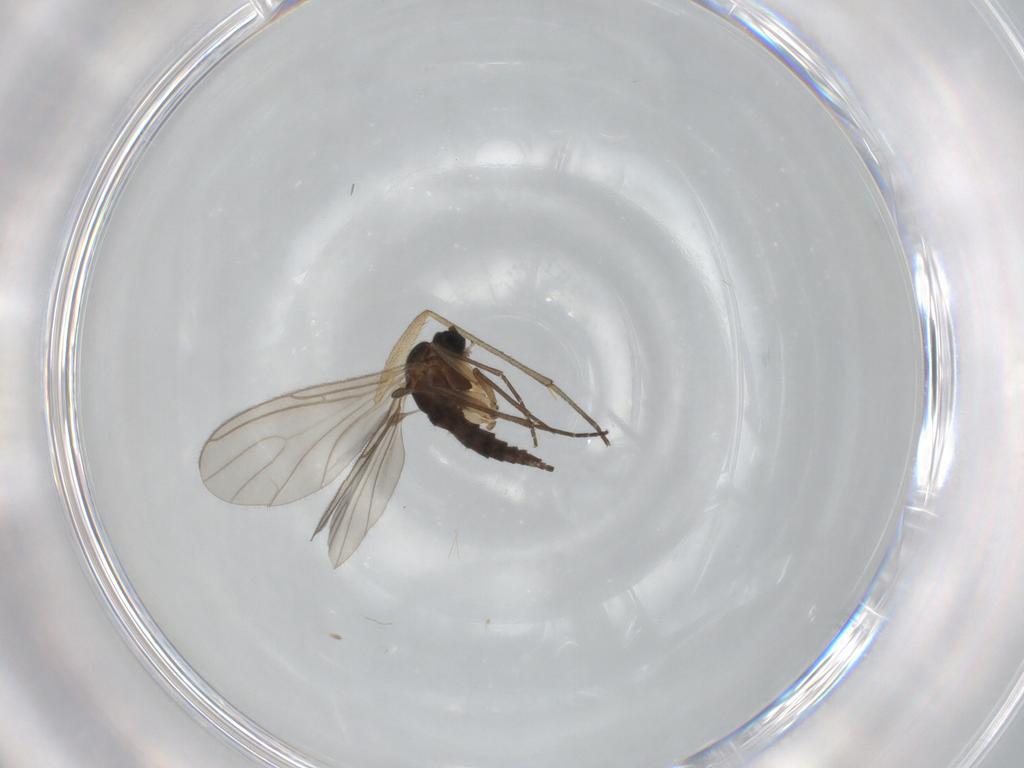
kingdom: Animalia
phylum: Arthropoda
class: Insecta
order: Diptera
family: Sciaridae
